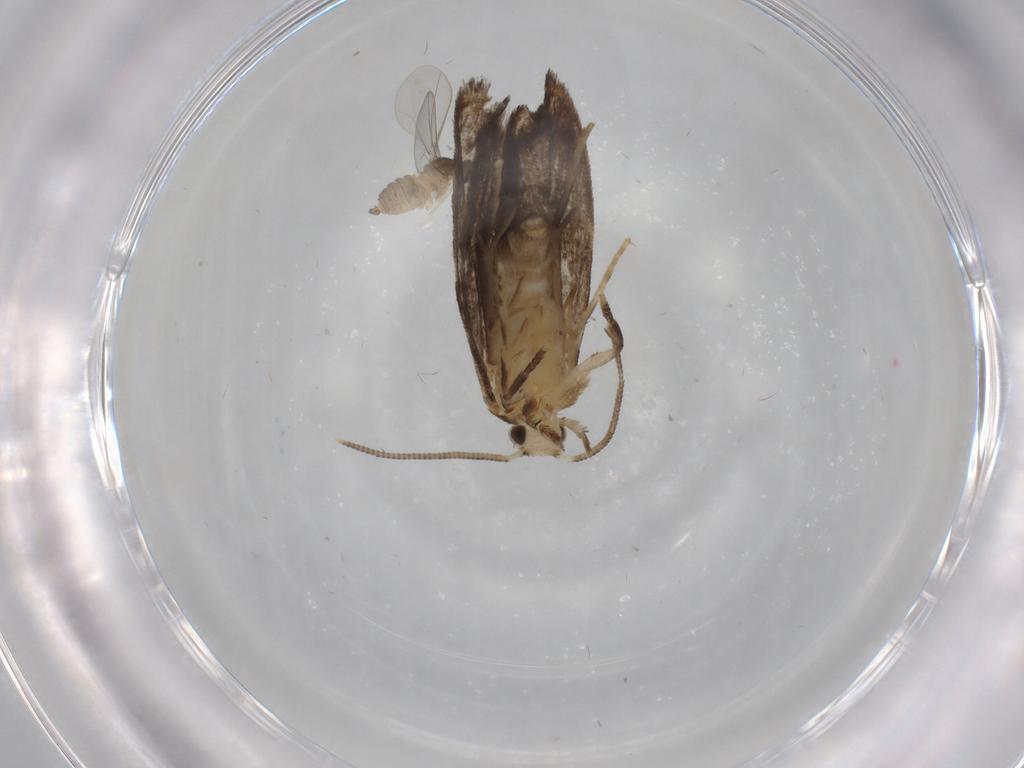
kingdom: Animalia
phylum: Arthropoda
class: Insecta
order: Diptera
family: Cecidomyiidae
